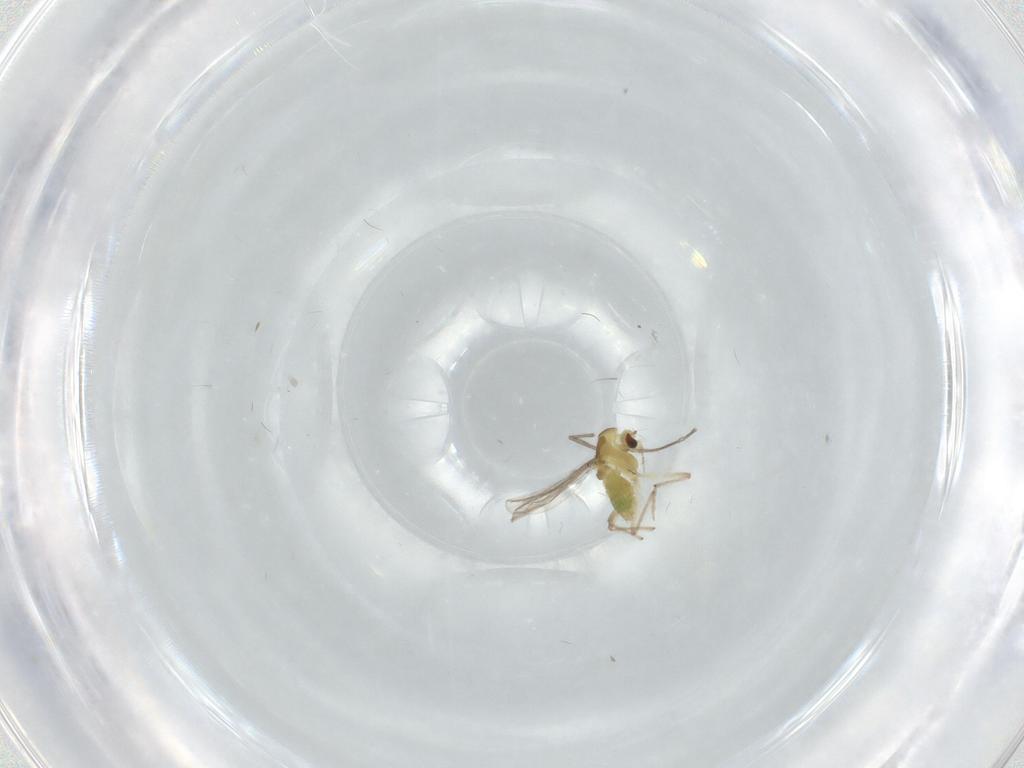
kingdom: Animalia
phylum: Arthropoda
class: Insecta
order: Diptera
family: Chironomidae
